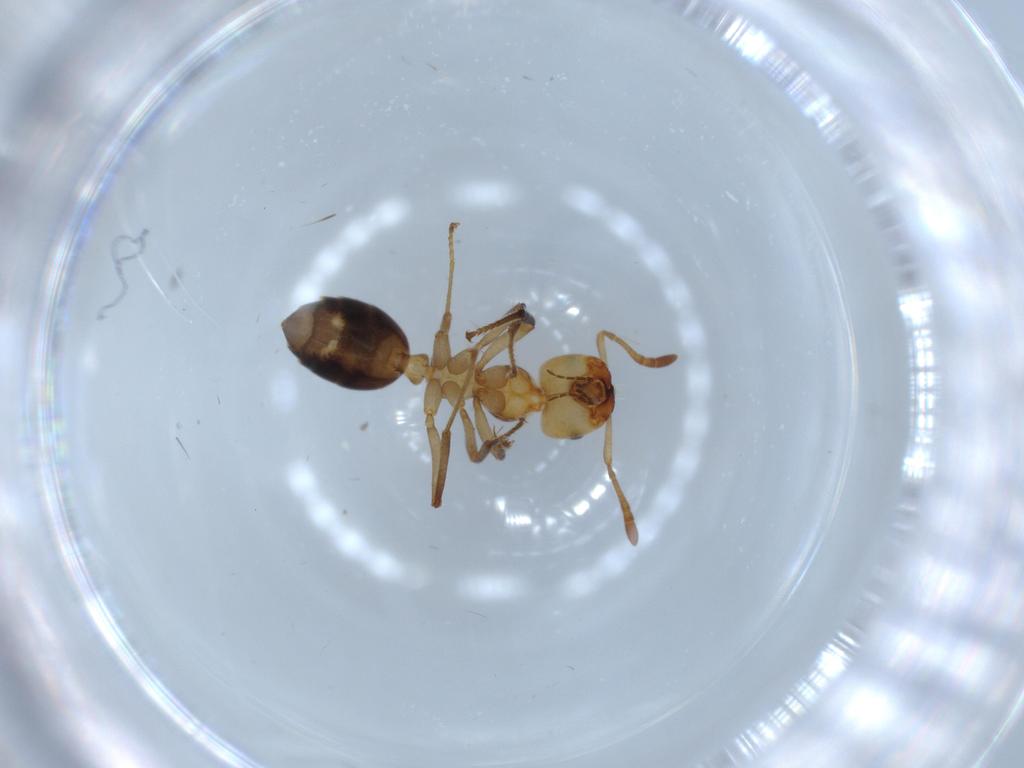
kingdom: Animalia
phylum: Arthropoda
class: Insecta
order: Hymenoptera
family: Formicidae
